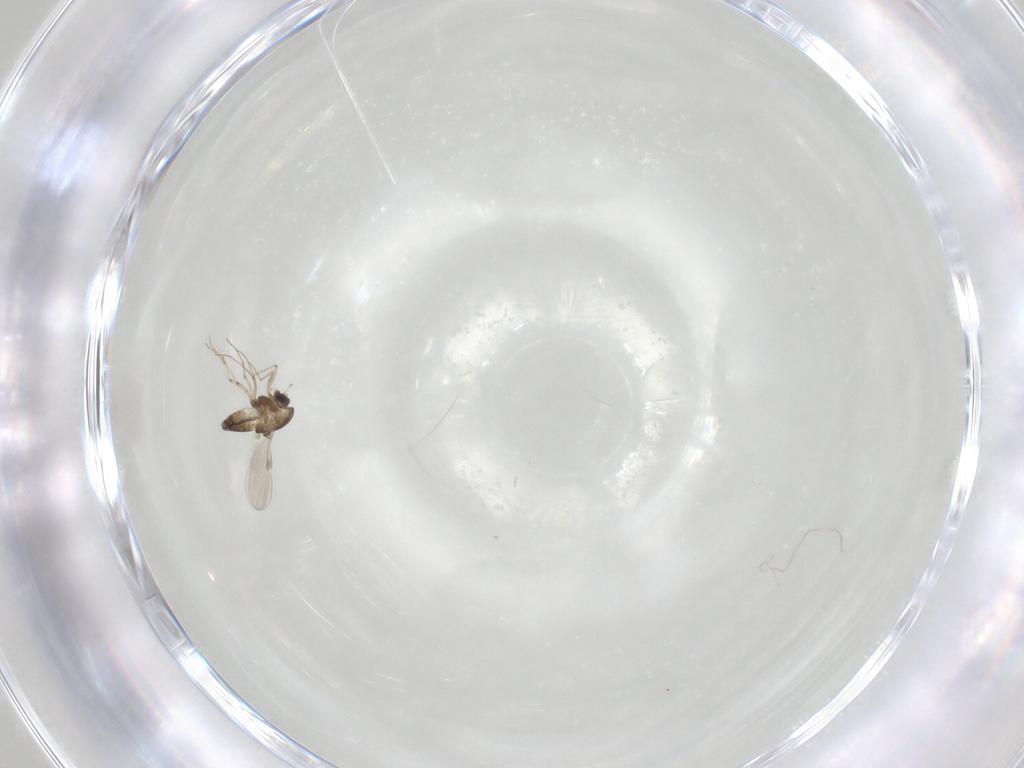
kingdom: Animalia
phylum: Arthropoda
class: Insecta
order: Diptera
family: Chironomidae
